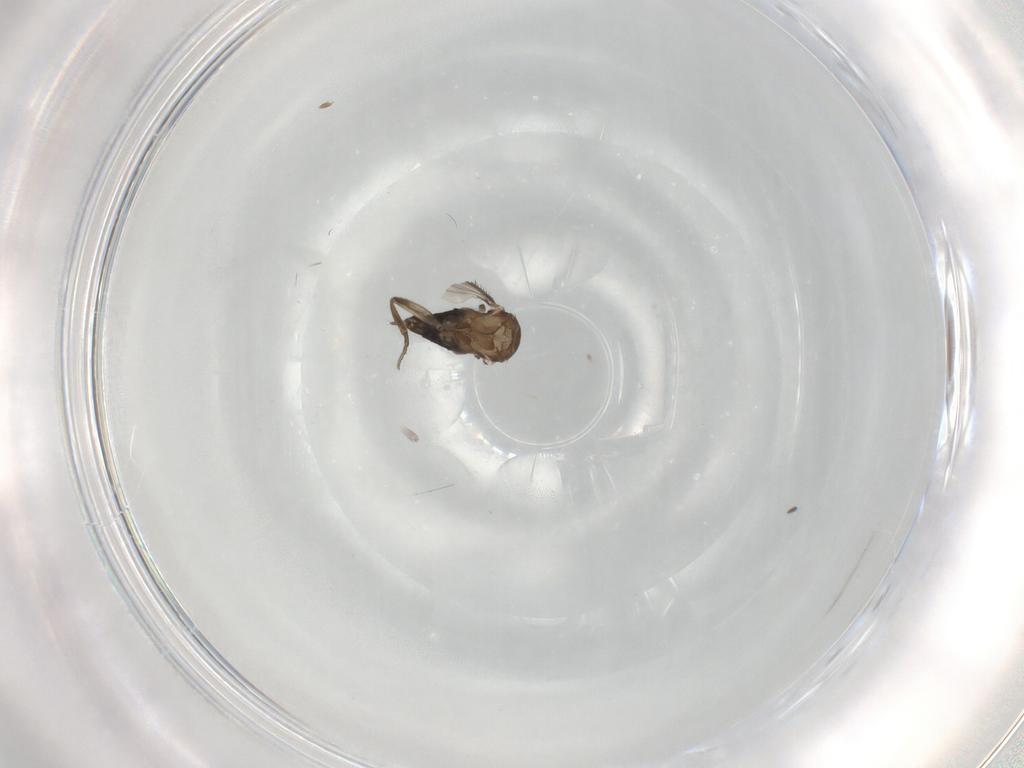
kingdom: Animalia
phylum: Arthropoda
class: Insecta
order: Diptera
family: Phoridae
